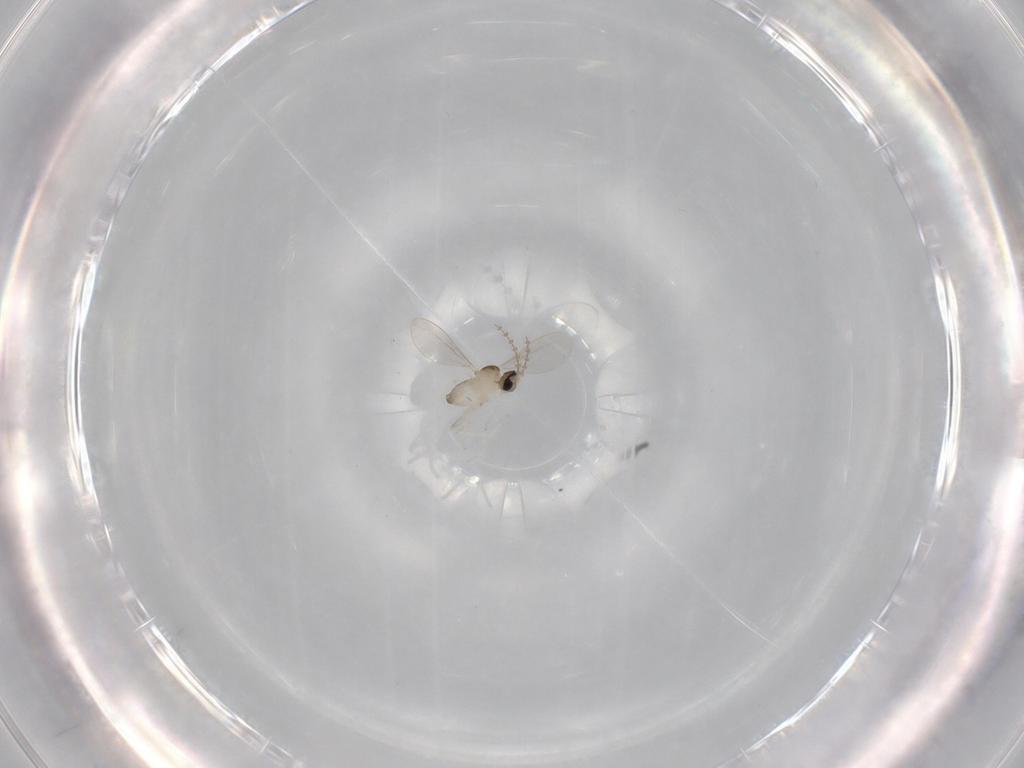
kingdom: Animalia
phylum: Arthropoda
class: Insecta
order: Diptera
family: Cecidomyiidae
